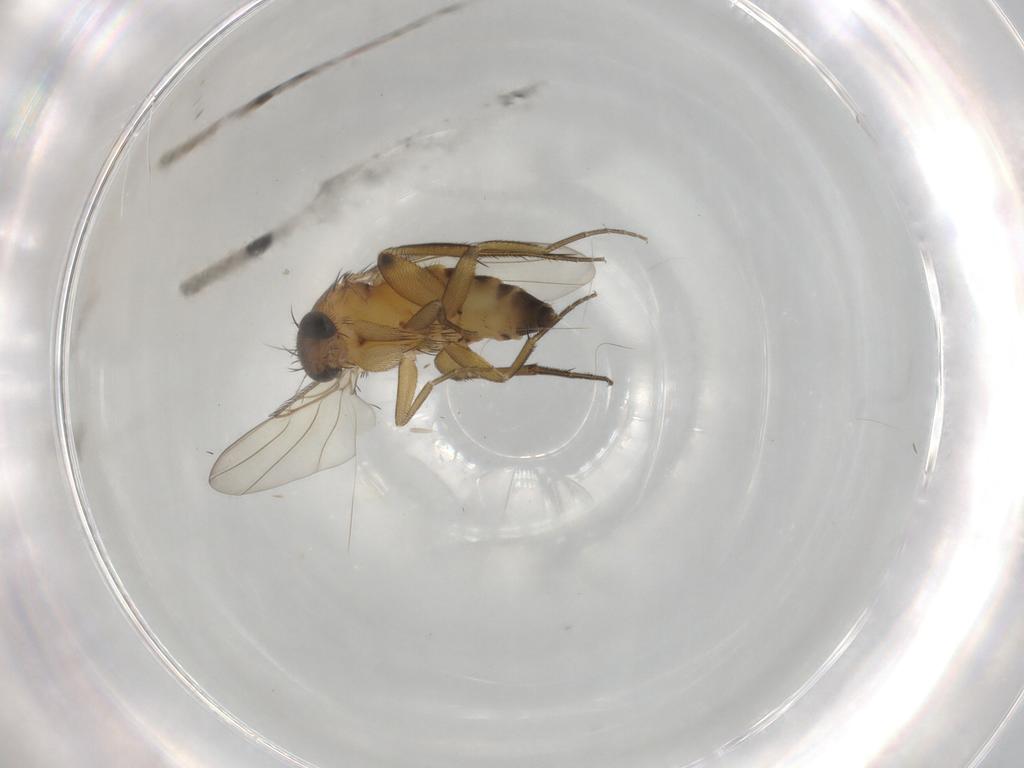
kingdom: Animalia
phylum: Arthropoda
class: Insecta
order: Diptera
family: Phoridae
